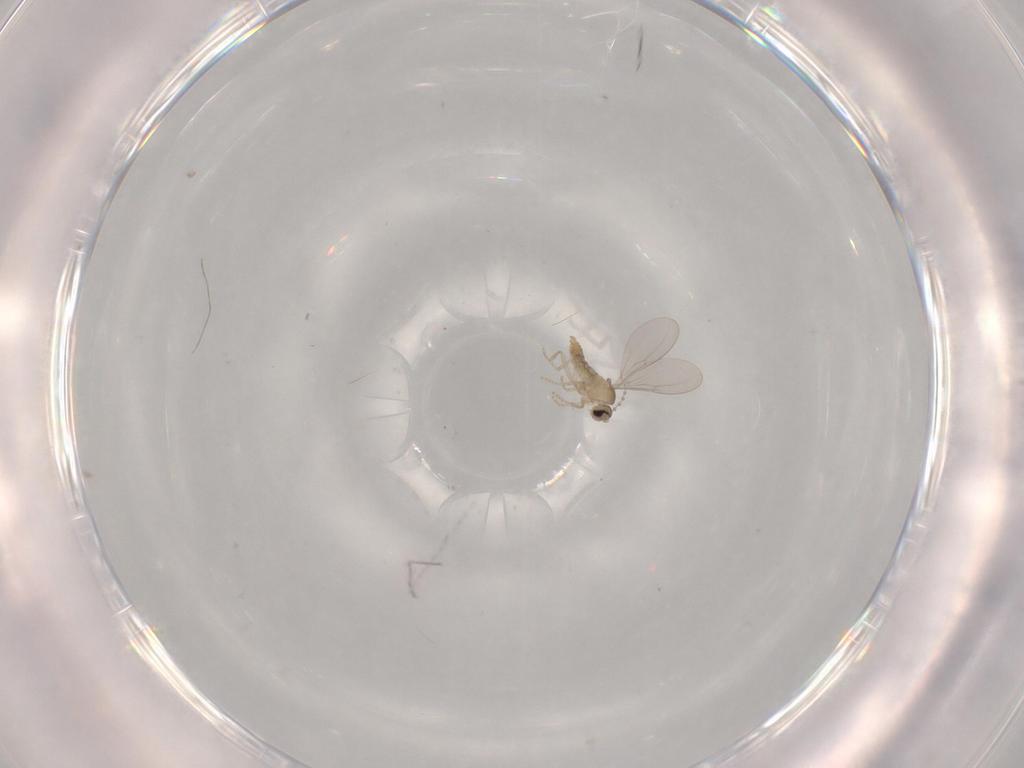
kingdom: Animalia
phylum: Arthropoda
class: Insecta
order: Diptera
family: Cecidomyiidae
